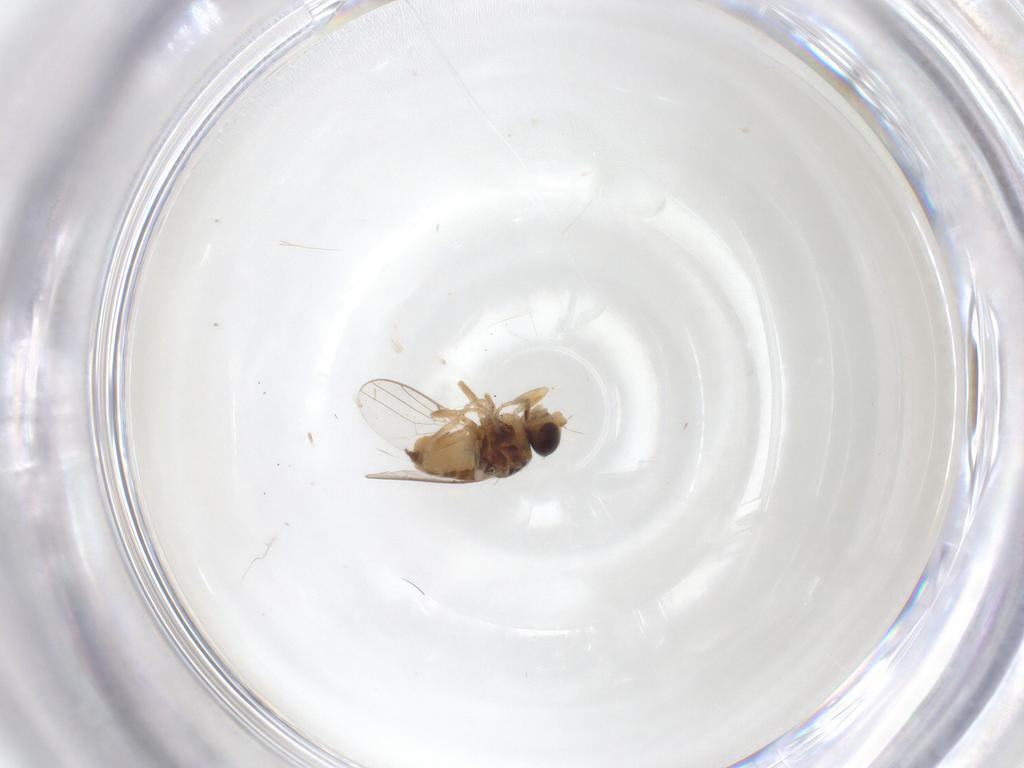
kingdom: Animalia
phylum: Arthropoda
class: Insecta
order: Diptera
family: Chloropidae
